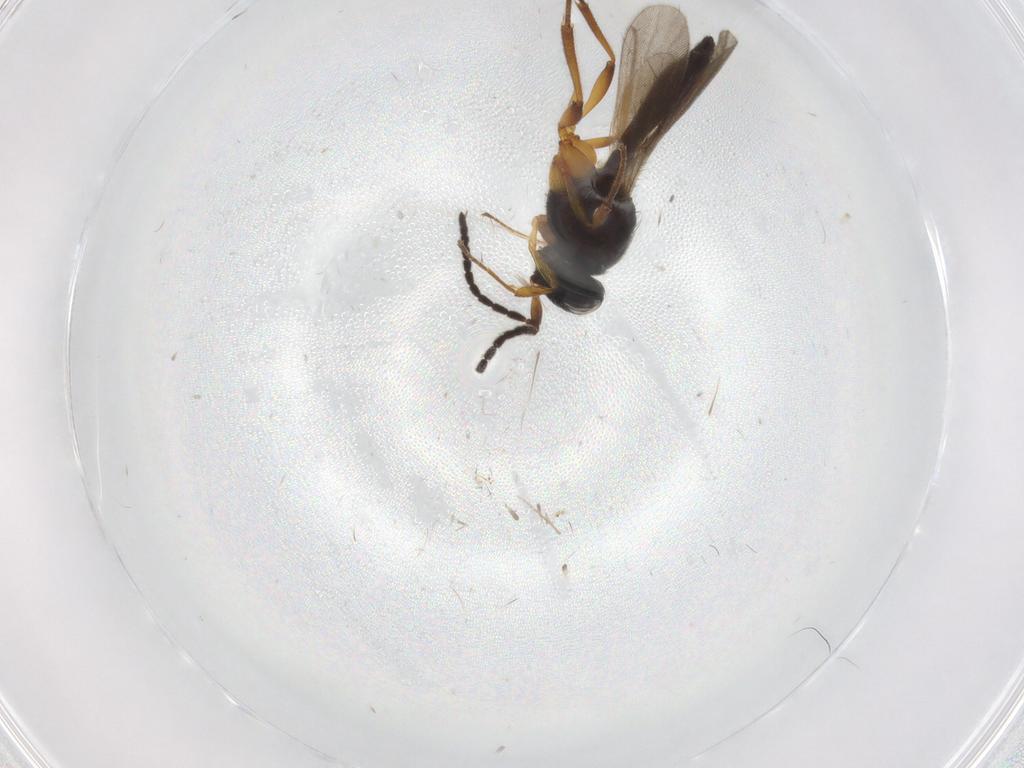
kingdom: Animalia
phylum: Arthropoda
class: Insecta
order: Hymenoptera
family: Scelionidae
